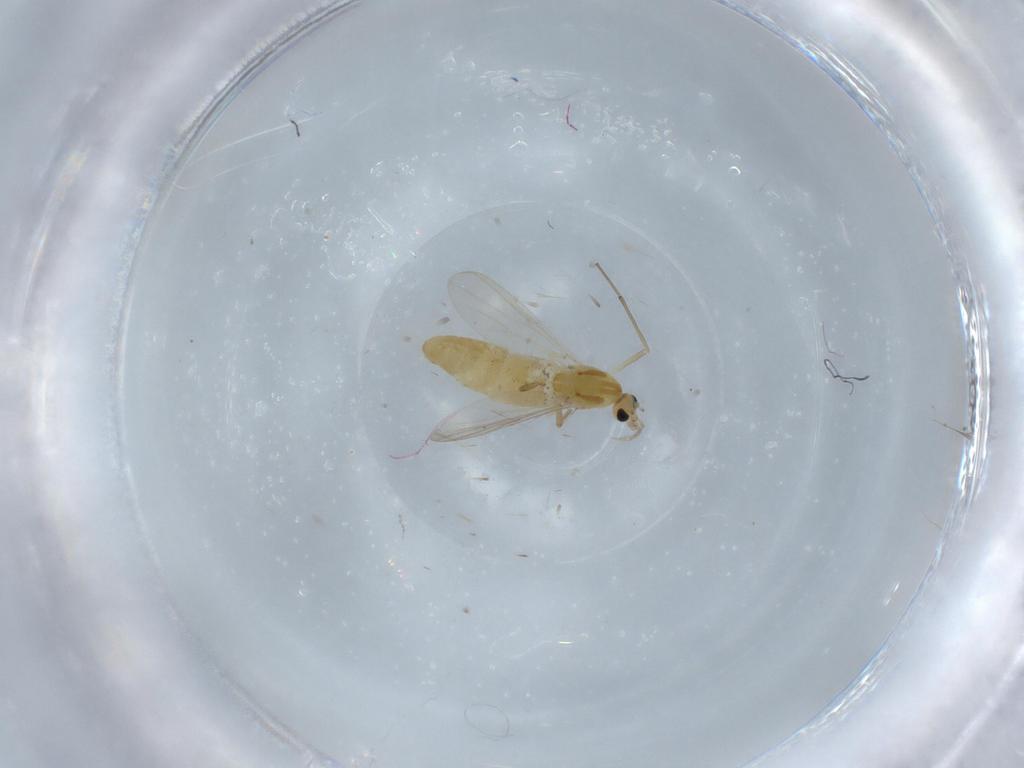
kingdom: Animalia
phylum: Arthropoda
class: Insecta
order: Diptera
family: Chironomidae
